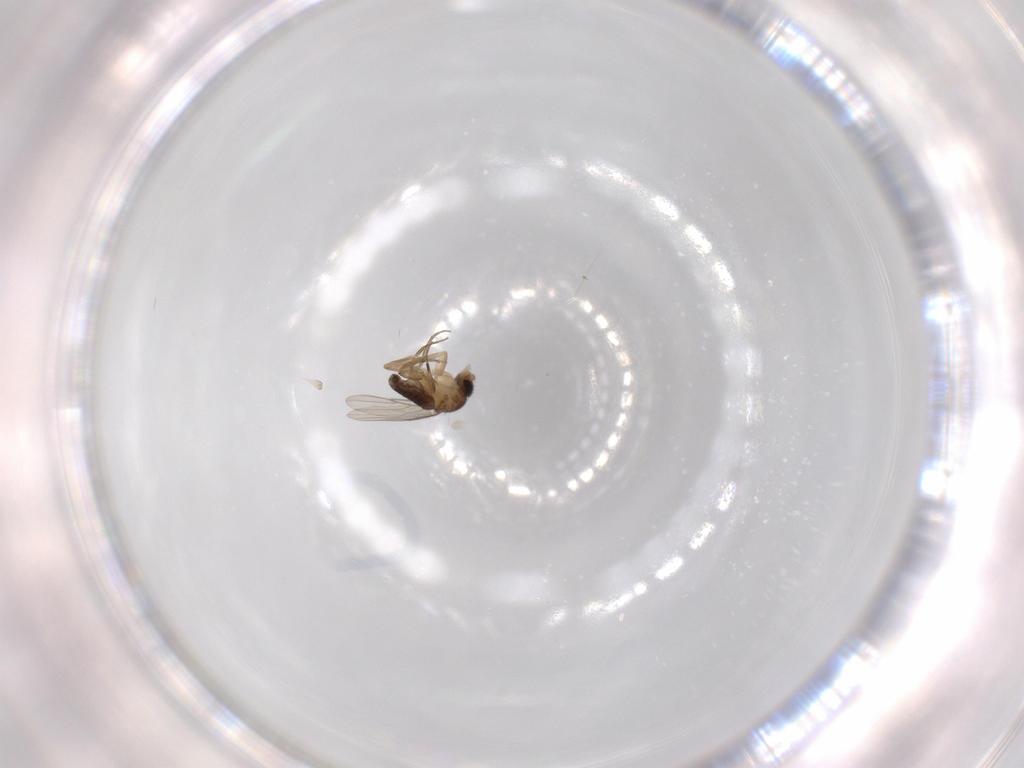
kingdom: Animalia
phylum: Arthropoda
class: Insecta
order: Diptera
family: Phoridae
